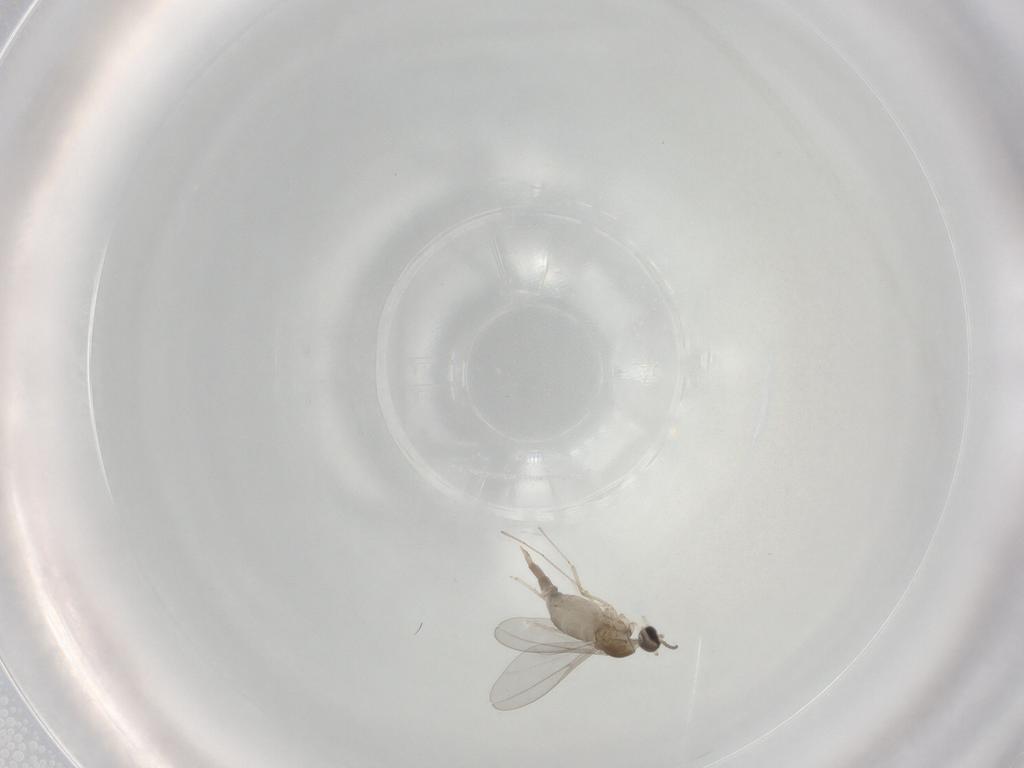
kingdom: Animalia
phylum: Arthropoda
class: Insecta
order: Diptera
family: Cecidomyiidae
